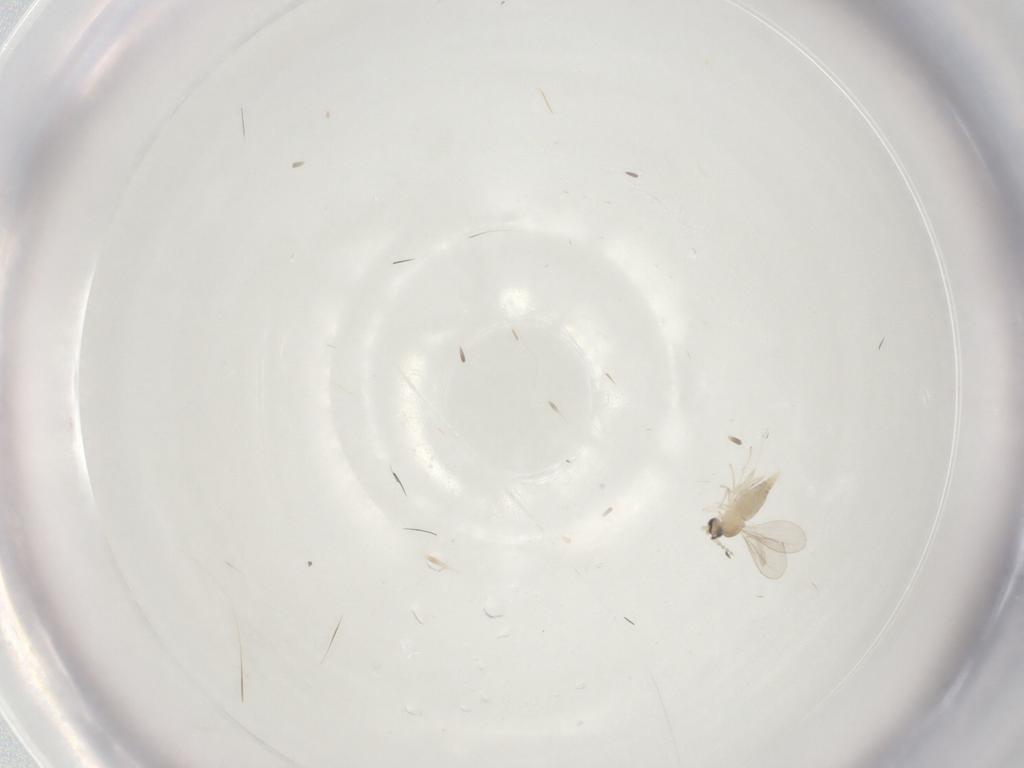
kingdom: Animalia
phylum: Arthropoda
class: Insecta
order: Diptera
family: Cecidomyiidae
